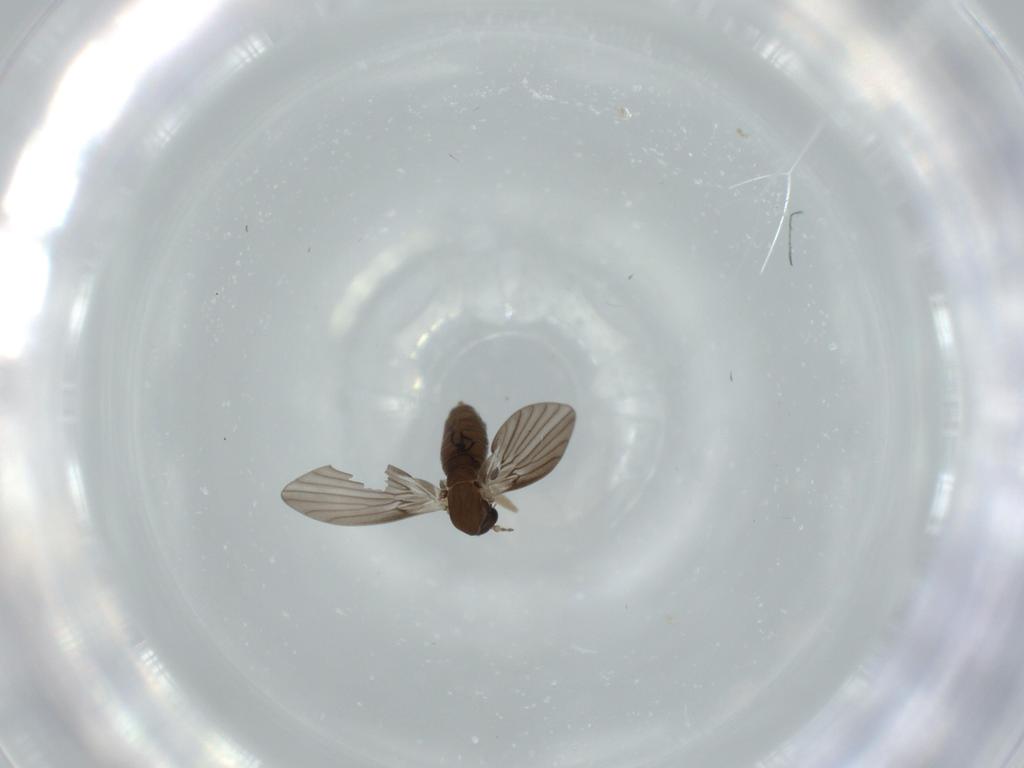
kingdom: Animalia
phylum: Arthropoda
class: Insecta
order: Diptera
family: Psychodidae
